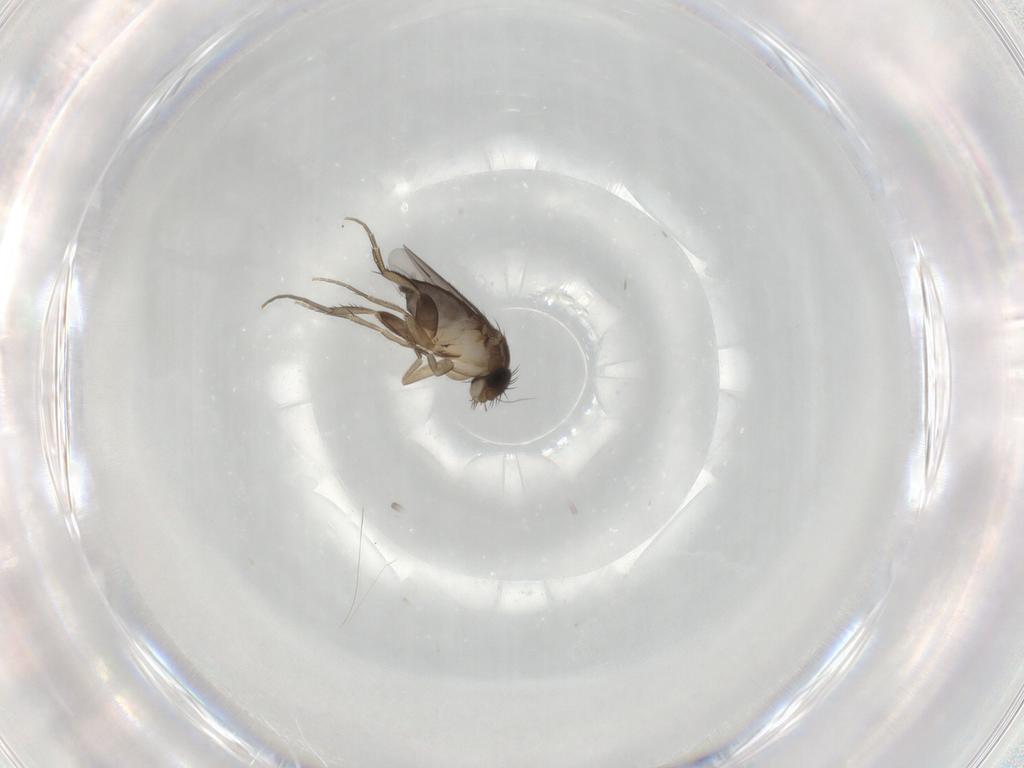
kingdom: Animalia
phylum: Arthropoda
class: Insecta
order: Diptera
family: Phoridae
